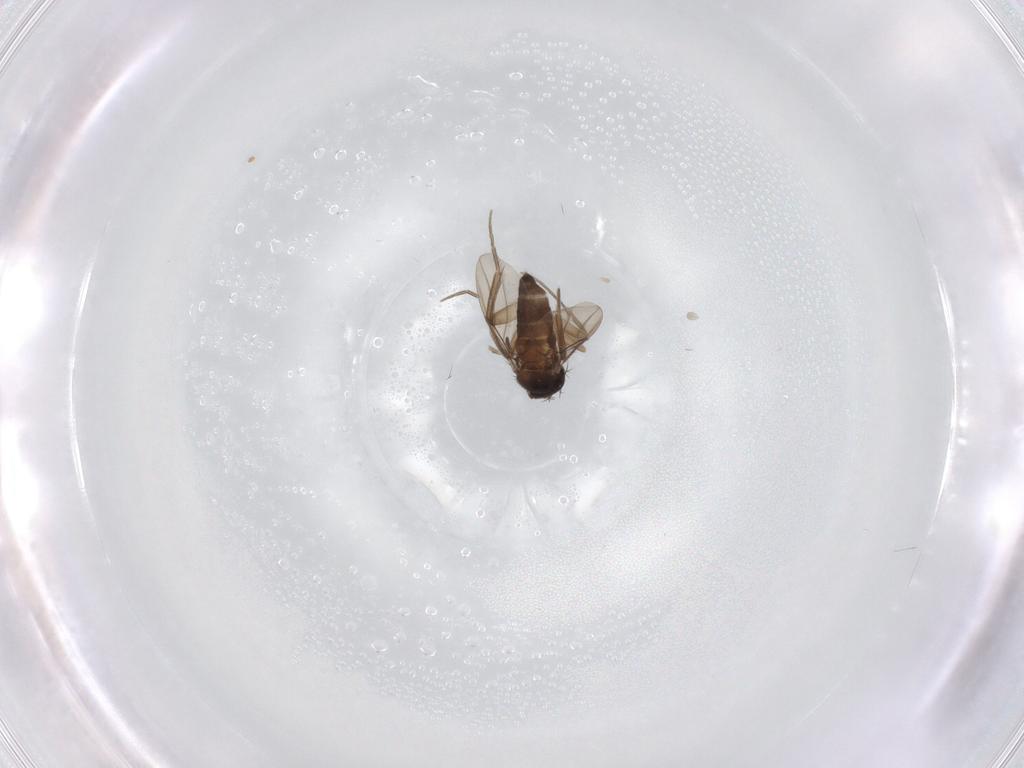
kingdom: Animalia
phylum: Arthropoda
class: Insecta
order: Diptera
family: Phoridae
